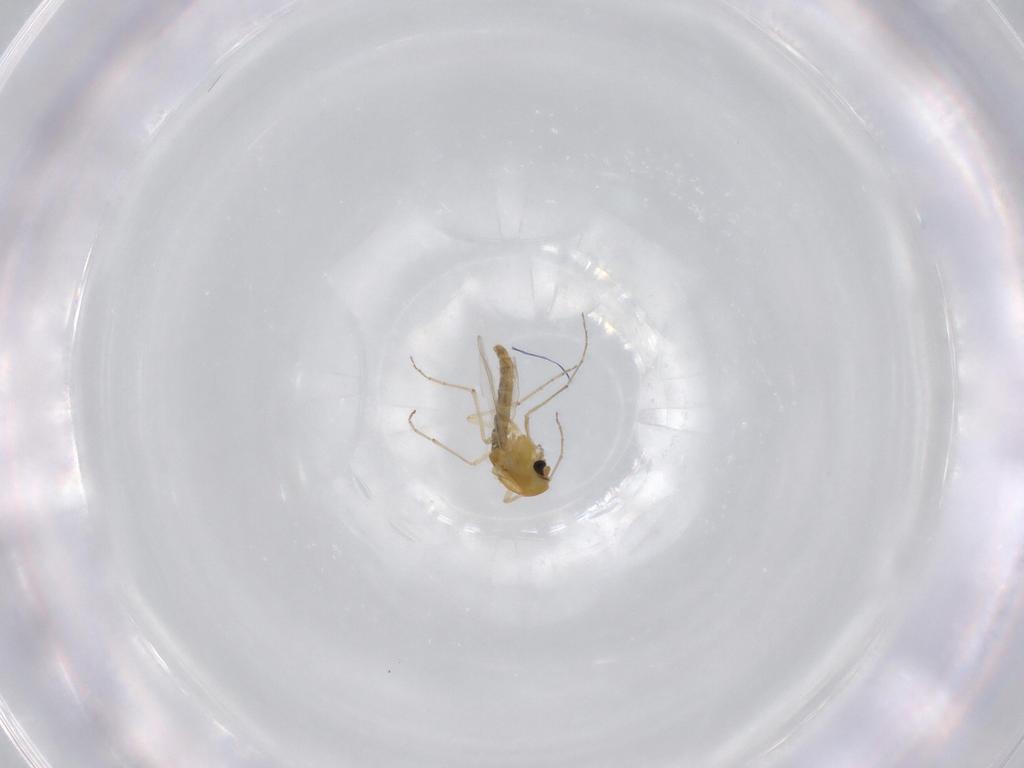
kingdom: Animalia
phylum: Arthropoda
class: Insecta
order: Diptera
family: Chironomidae
